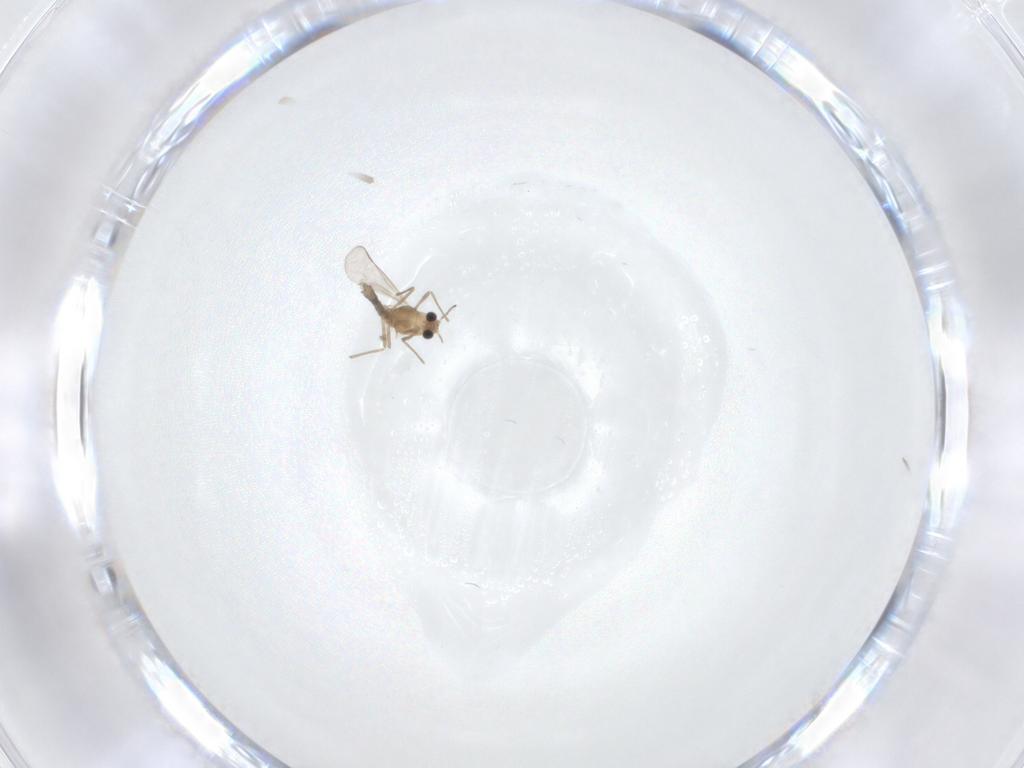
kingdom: Animalia
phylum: Arthropoda
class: Insecta
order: Diptera
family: Chironomidae
